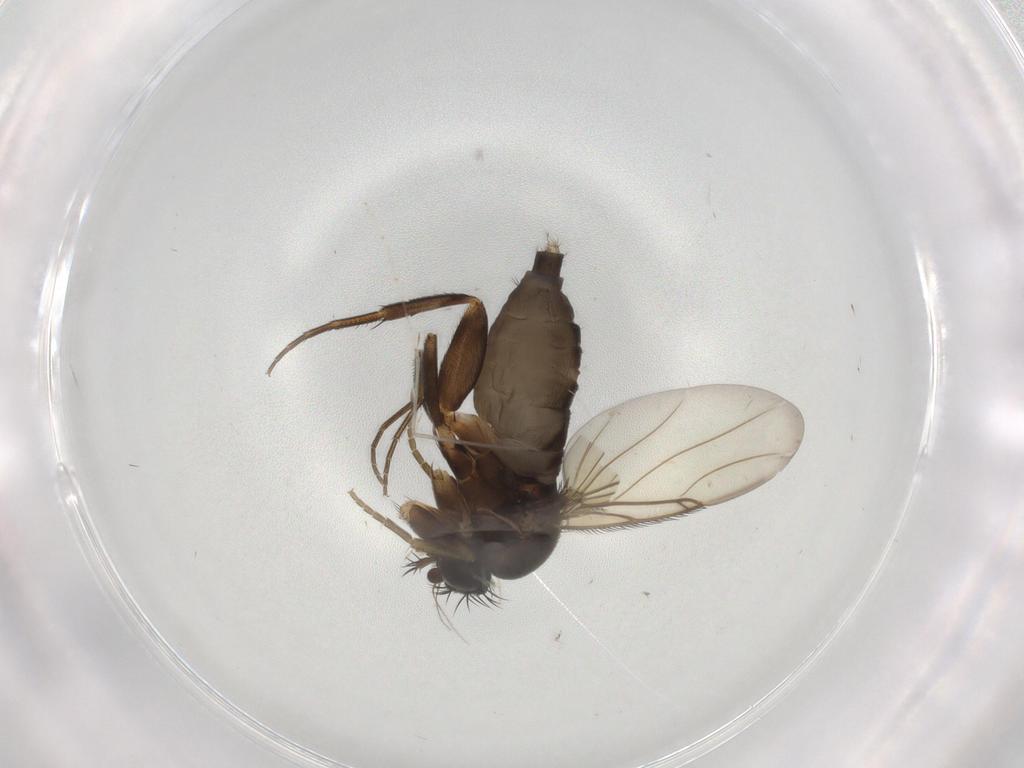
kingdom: Animalia
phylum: Arthropoda
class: Insecta
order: Diptera
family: Phoridae
